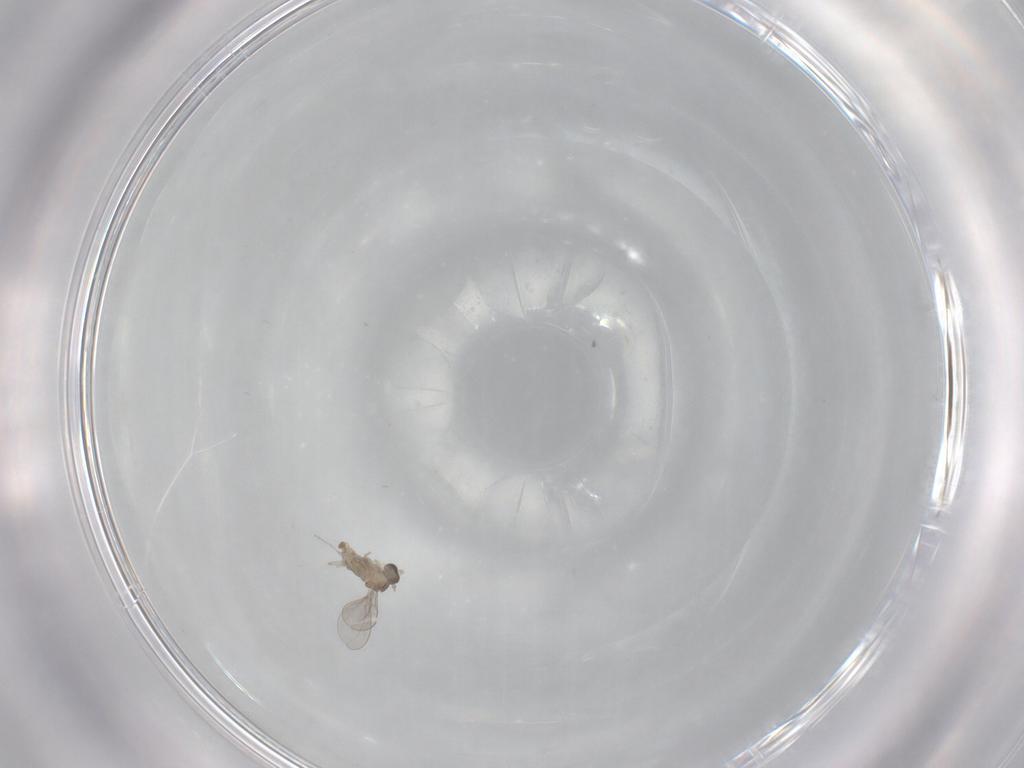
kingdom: Animalia
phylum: Arthropoda
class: Insecta
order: Diptera
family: Cecidomyiidae
